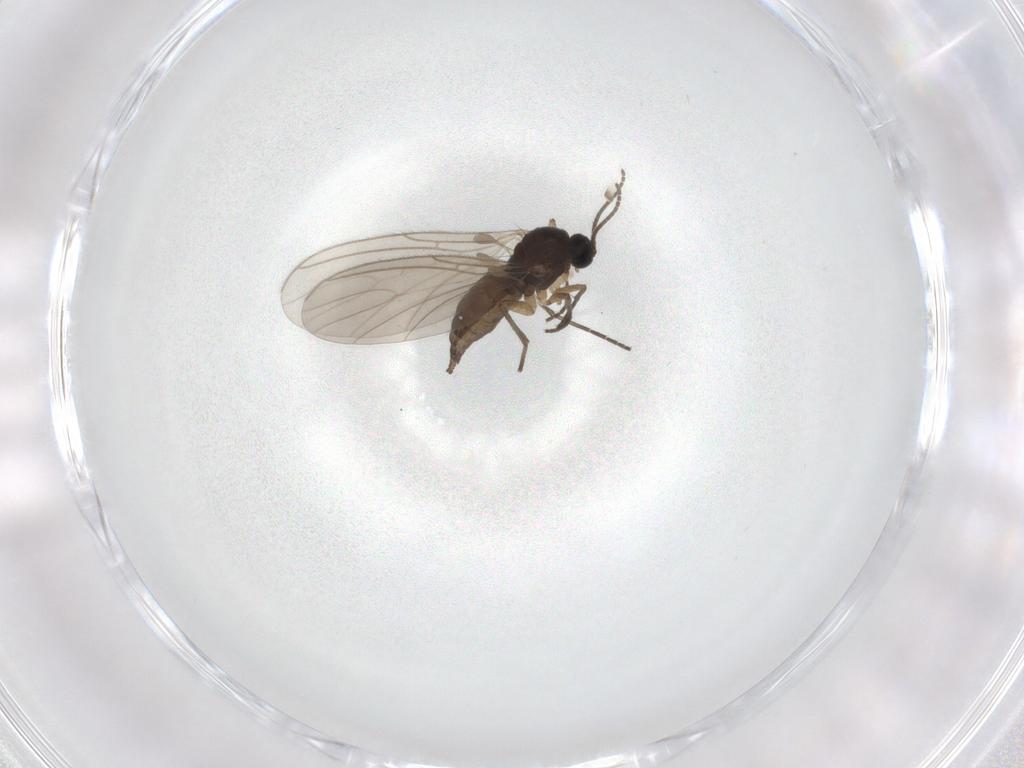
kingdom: Animalia
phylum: Arthropoda
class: Insecta
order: Diptera
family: Sciaridae
